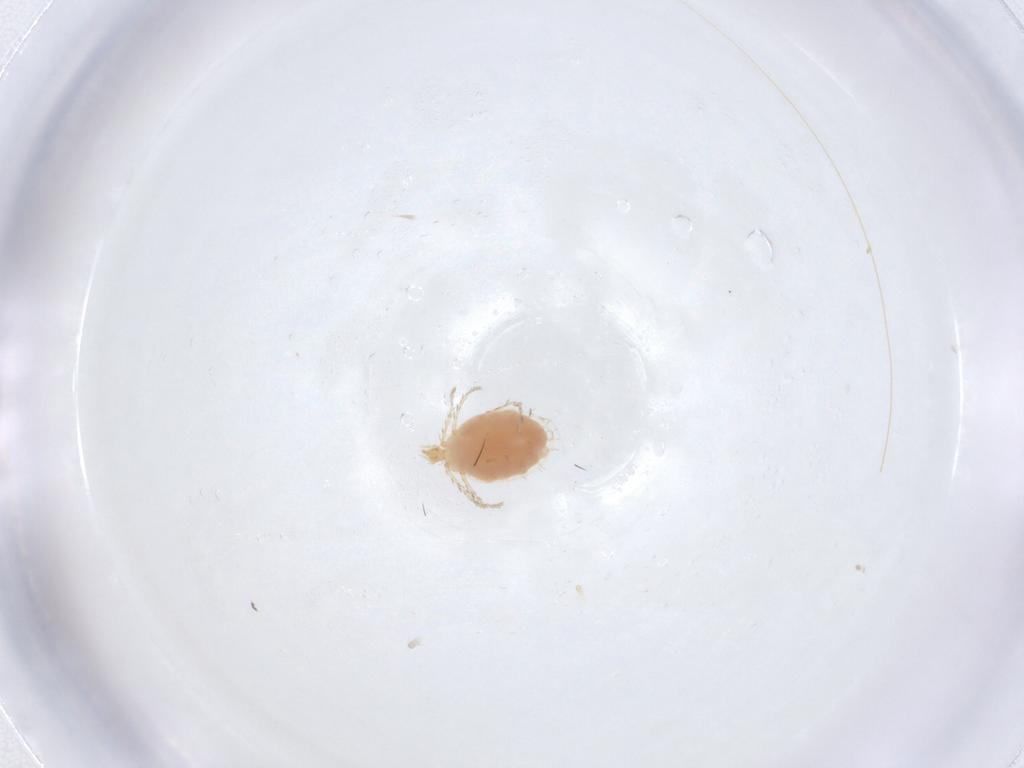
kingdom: Animalia
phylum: Arthropoda
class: Arachnida
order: Trombidiformes
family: Erythraeidae
